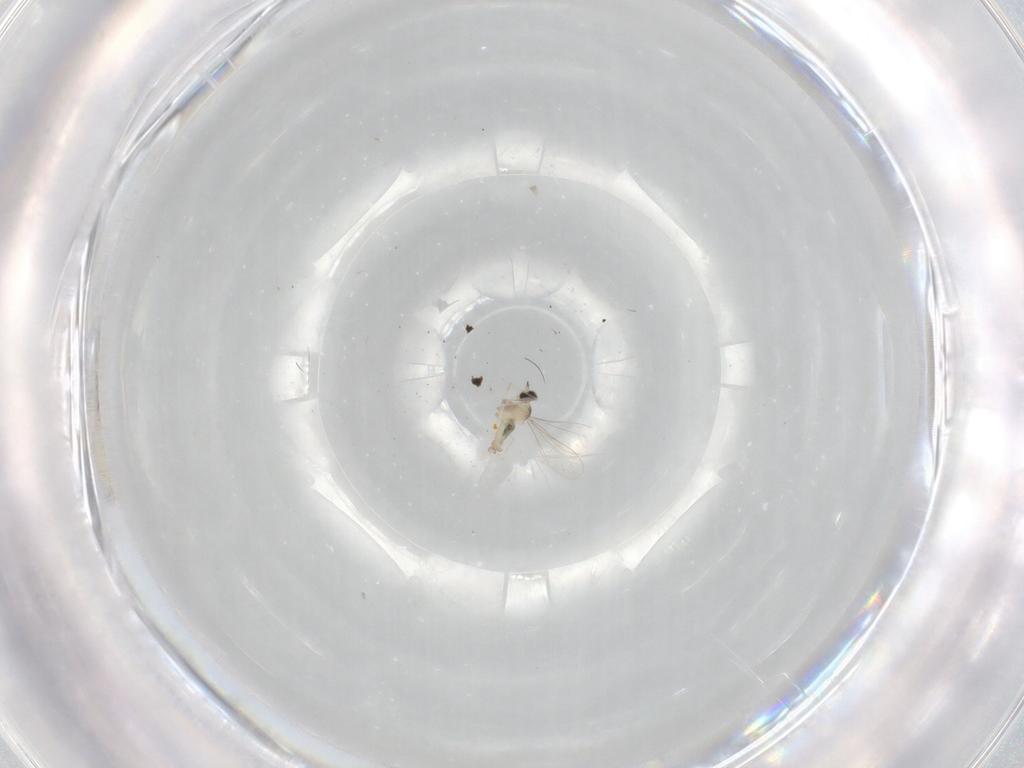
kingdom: Animalia
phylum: Arthropoda
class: Insecta
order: Diptera
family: Cecidomyiidae
